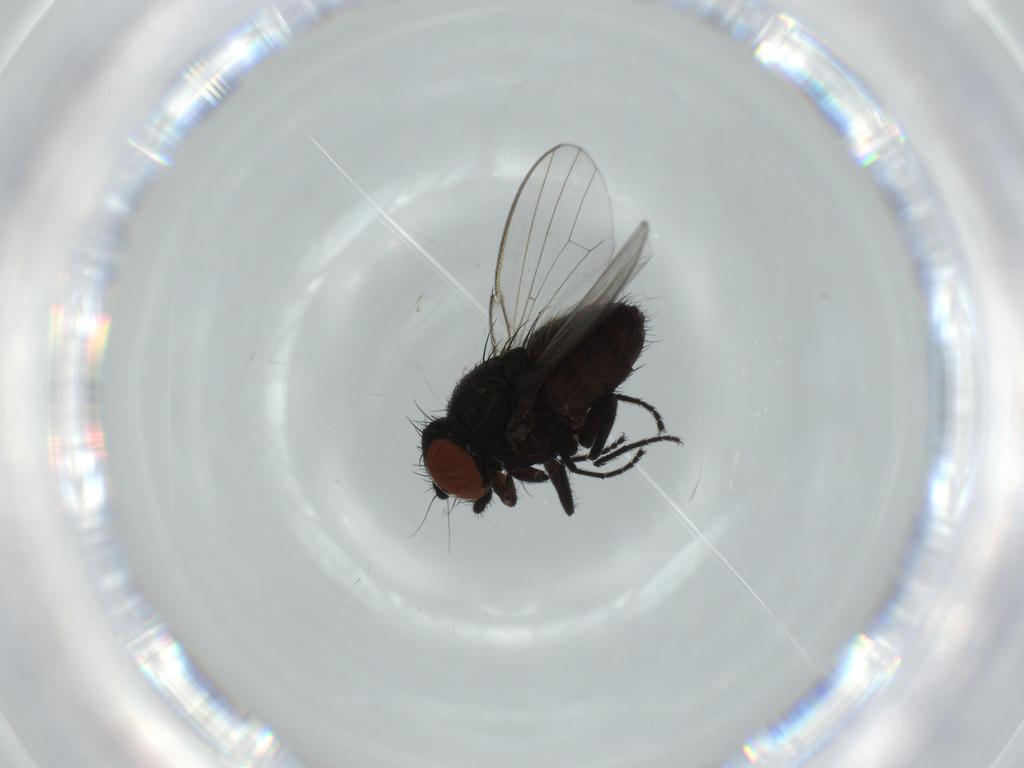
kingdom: Animalia
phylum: Arthropoda
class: Insecta
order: Diptera
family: Milichiidae
